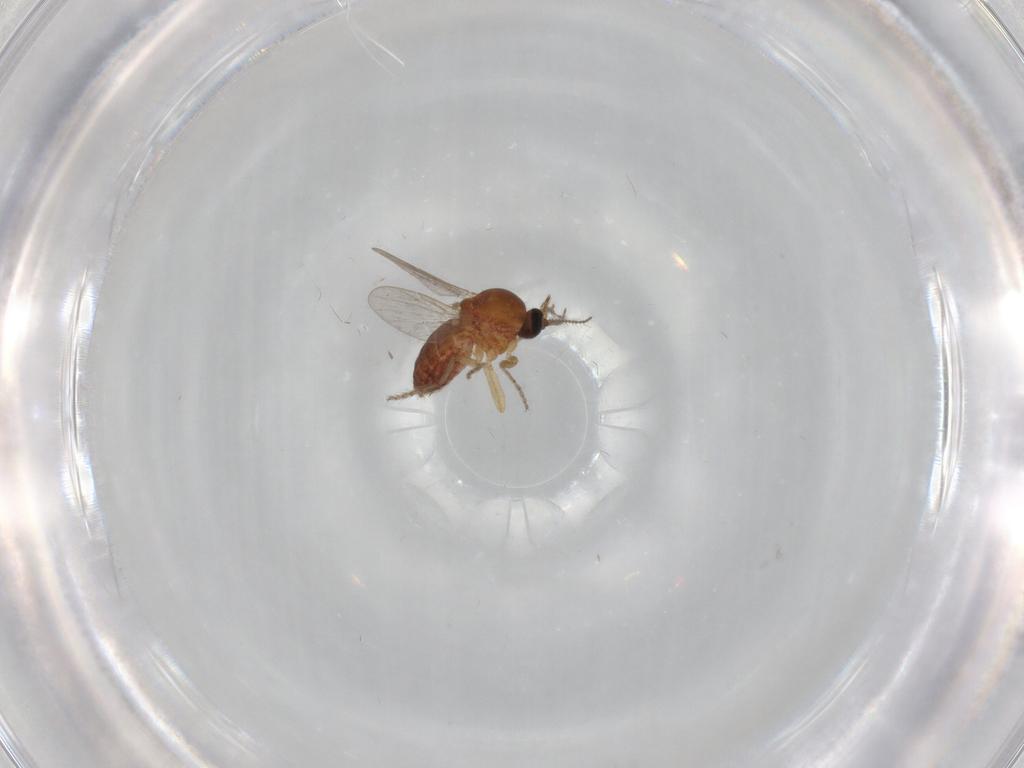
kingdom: Animalia
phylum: Arthropoda
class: Insecta
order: Diptera
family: Ceratopogonidae
